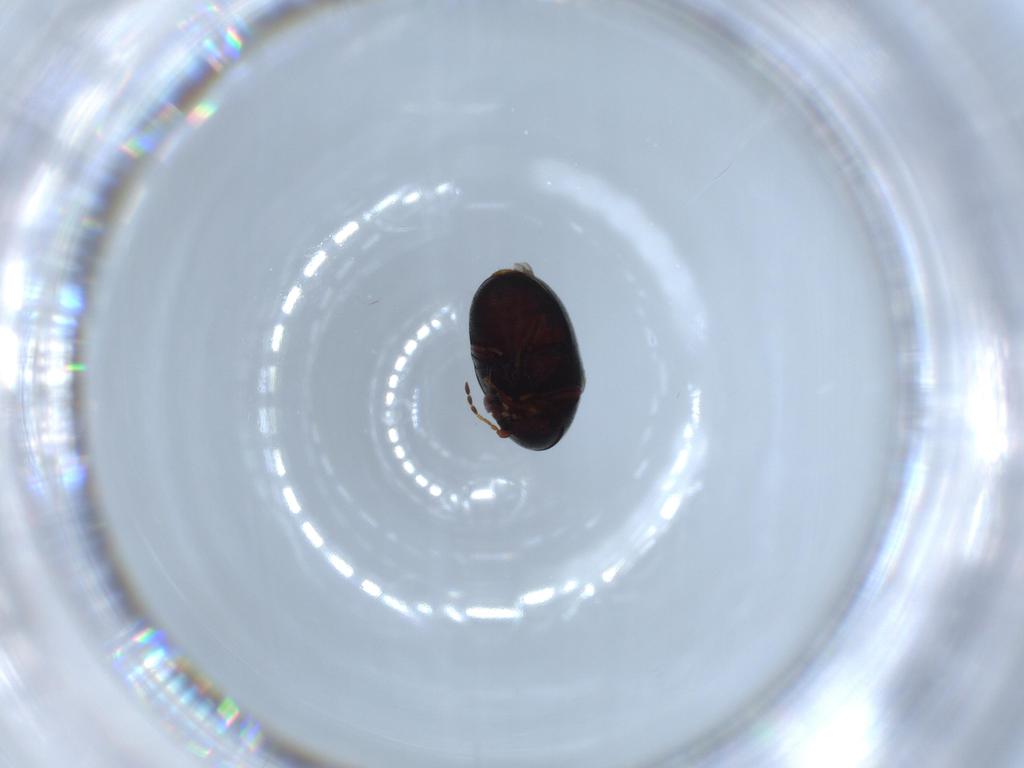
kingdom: Animalia
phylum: Arthropoda
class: Insecta
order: Coleoptera
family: Ptinidae
